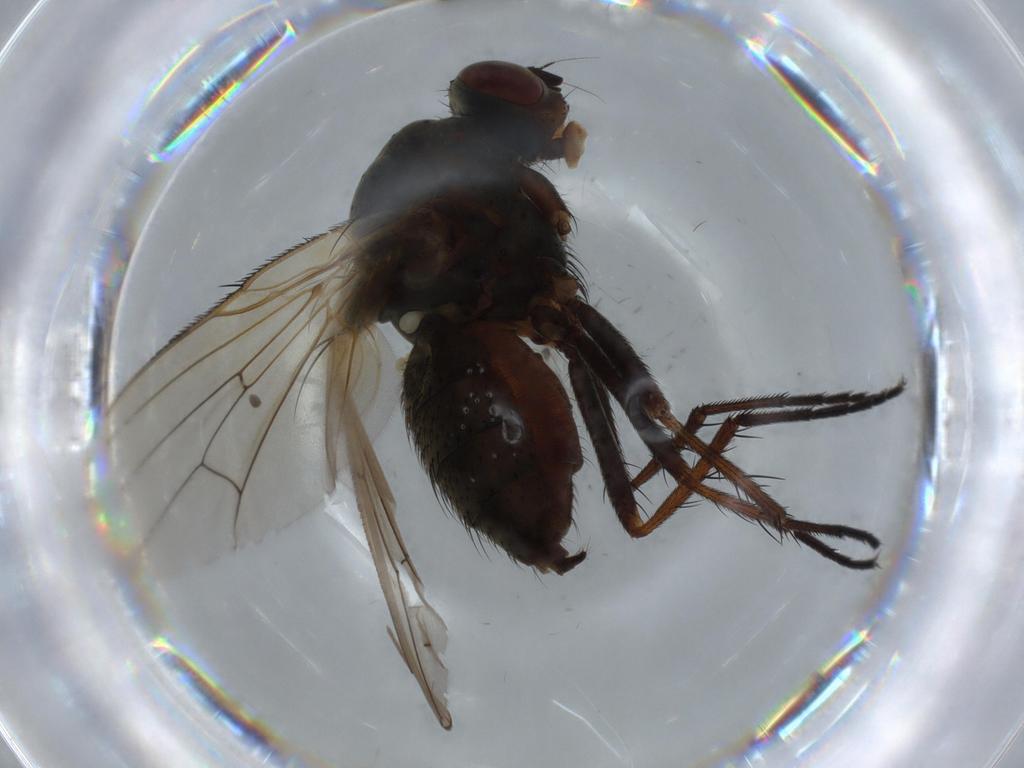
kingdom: Animalia
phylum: Arthropoda
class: Insecta
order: Diptera
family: Anthomyiidae
